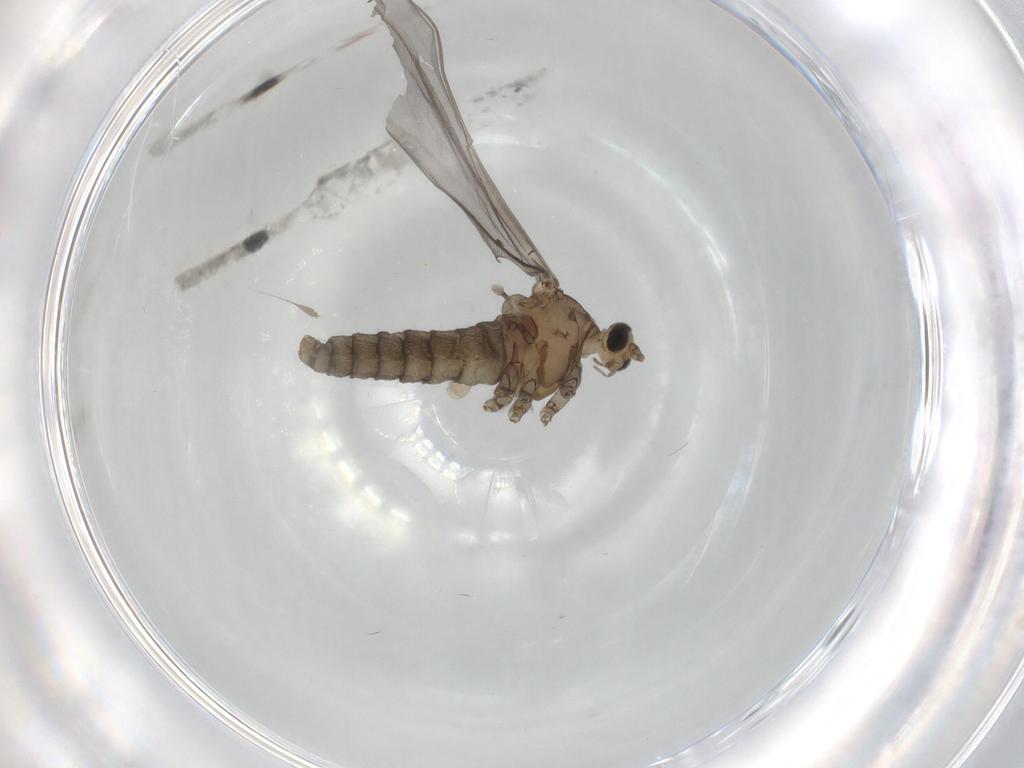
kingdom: Animalia
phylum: Arthropoda
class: Insecta
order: Diptera
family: Cecidomyiidae
